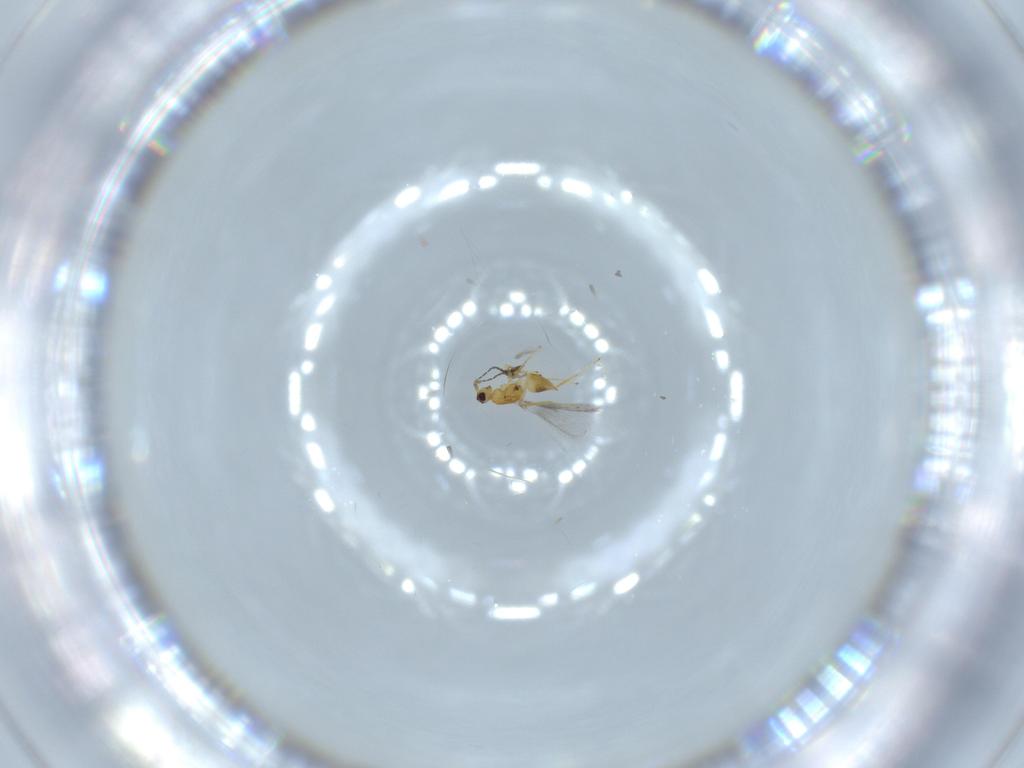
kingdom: Animalia
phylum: Arthropoda
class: Insecta
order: Hymenoptera
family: Mymaridae
